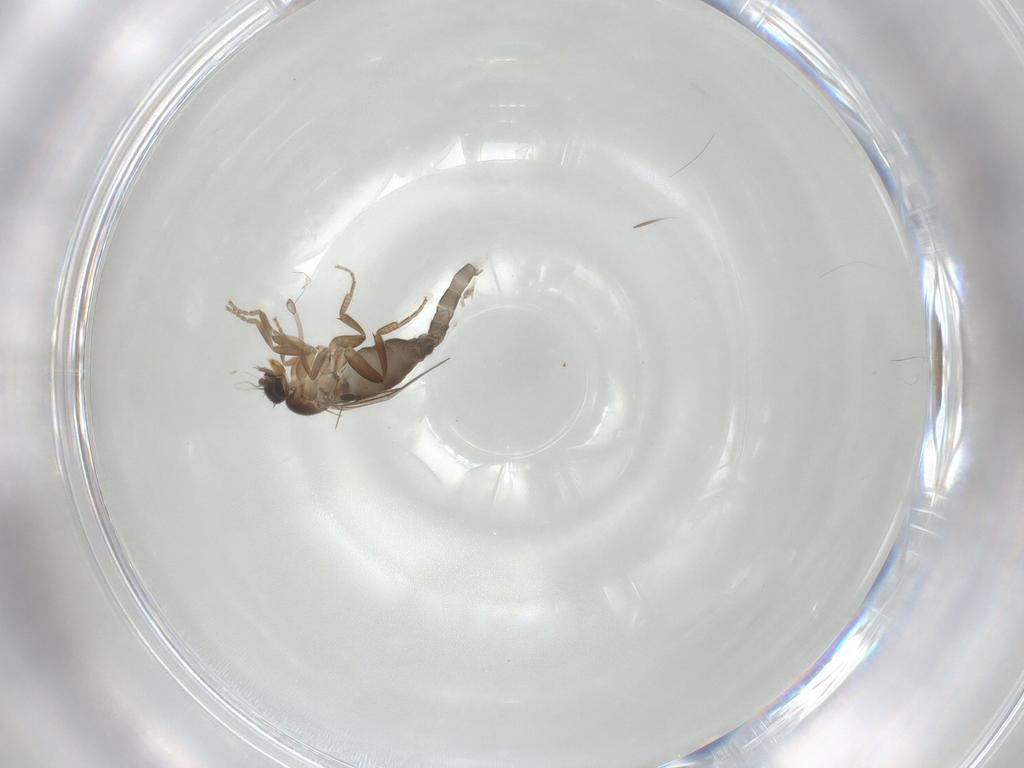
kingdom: Animalia
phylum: Arthropoda
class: Insecta
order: Diptera
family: Ceratopogonidae
